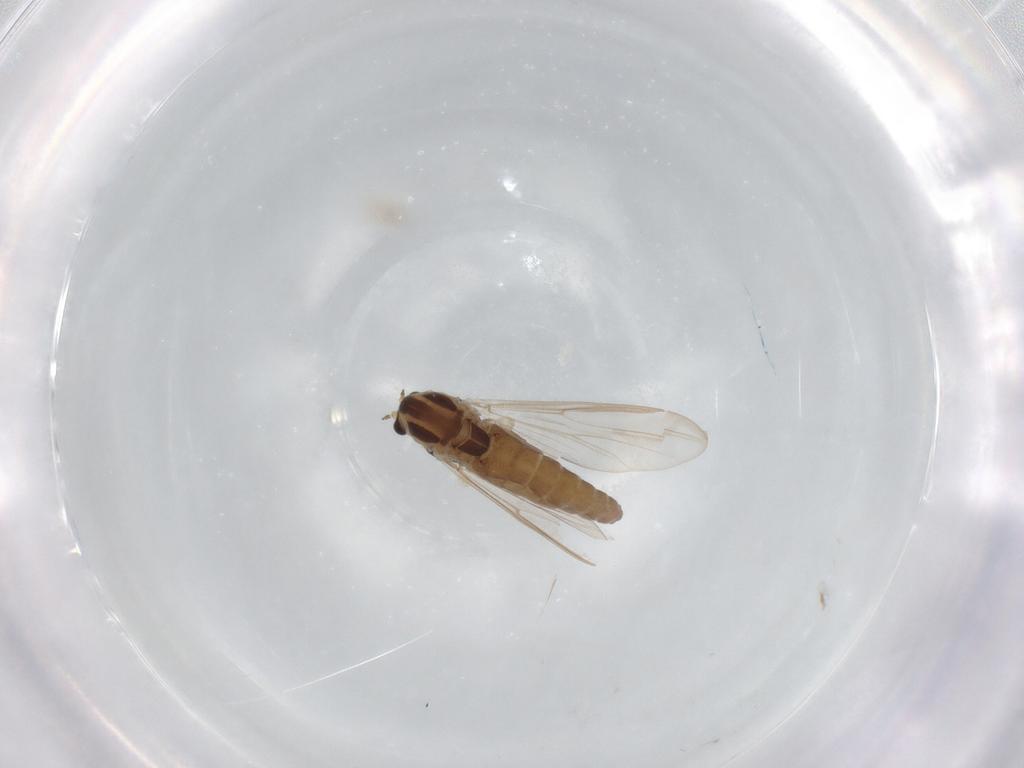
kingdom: Animalia
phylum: Arthropoda
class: Insecta
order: Diptera
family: Chironomidae
